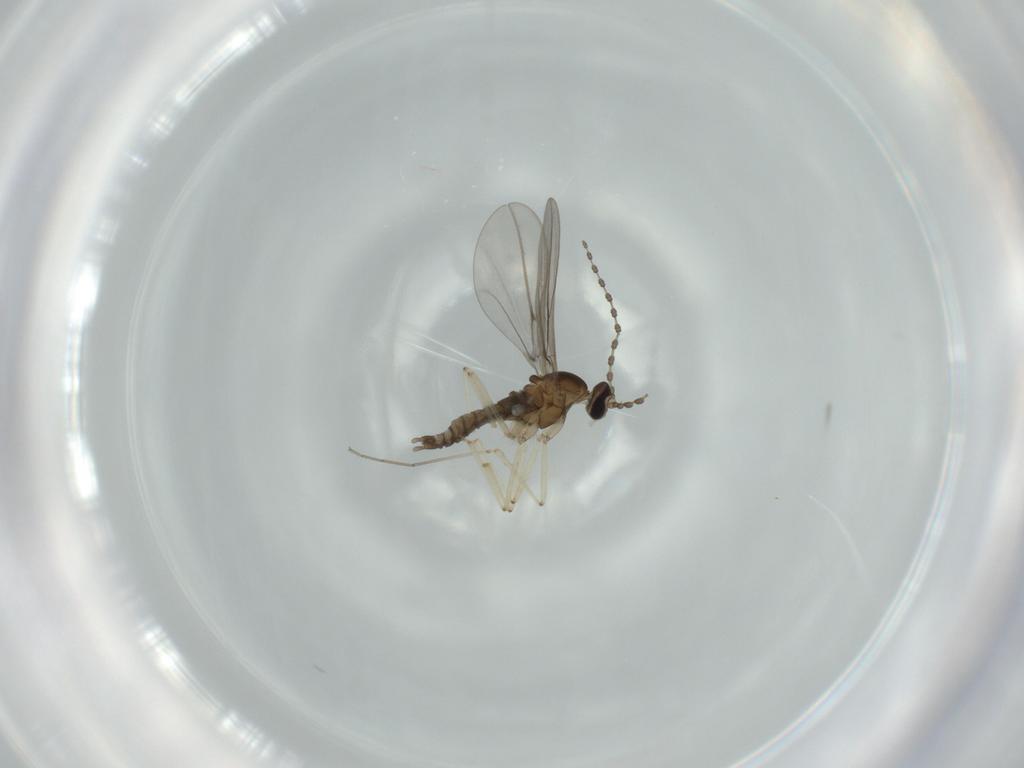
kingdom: Animalia
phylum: Arthropoda
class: Insecta
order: Diptera
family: Cecidomyiidae
